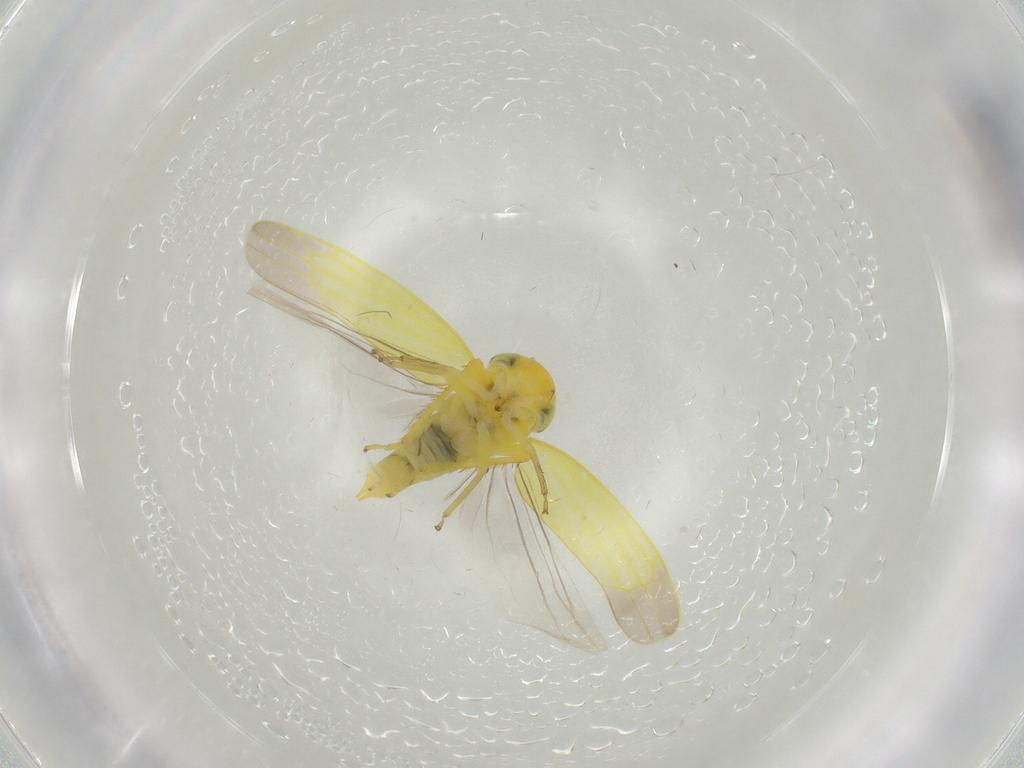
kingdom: Animalia
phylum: Arthropoda
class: Insecta
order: Hemiptera
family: Cicadellidae
